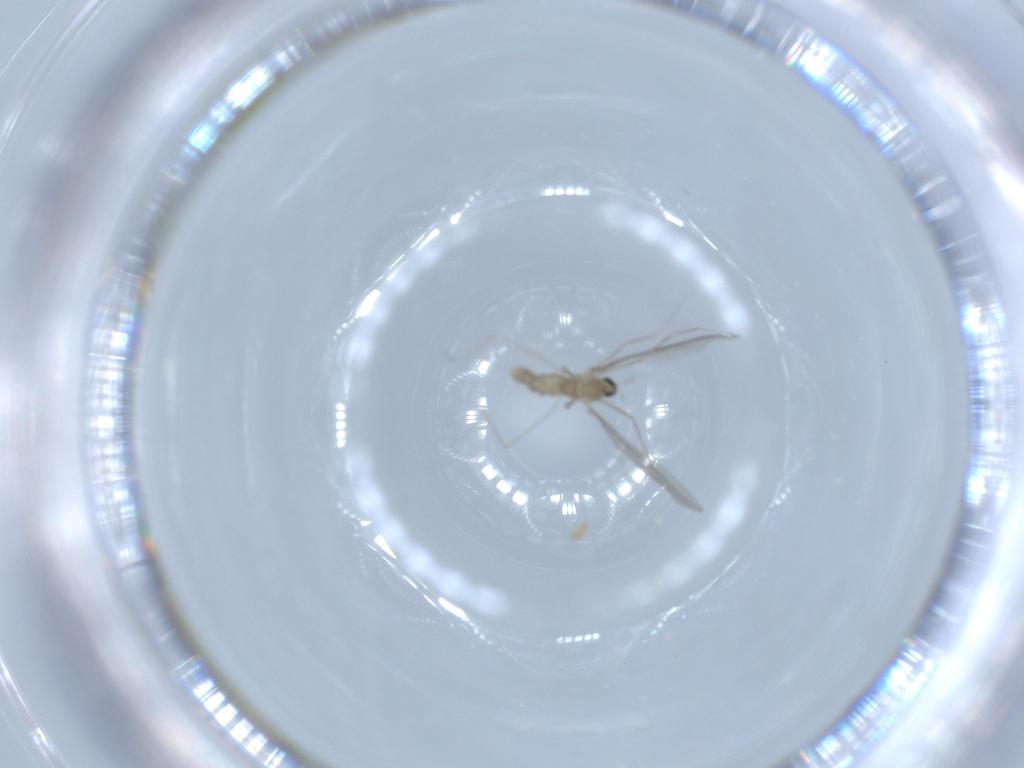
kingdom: Animalia
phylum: Arthropoda
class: Insecta
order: Diptera
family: Cecidomyiidae
